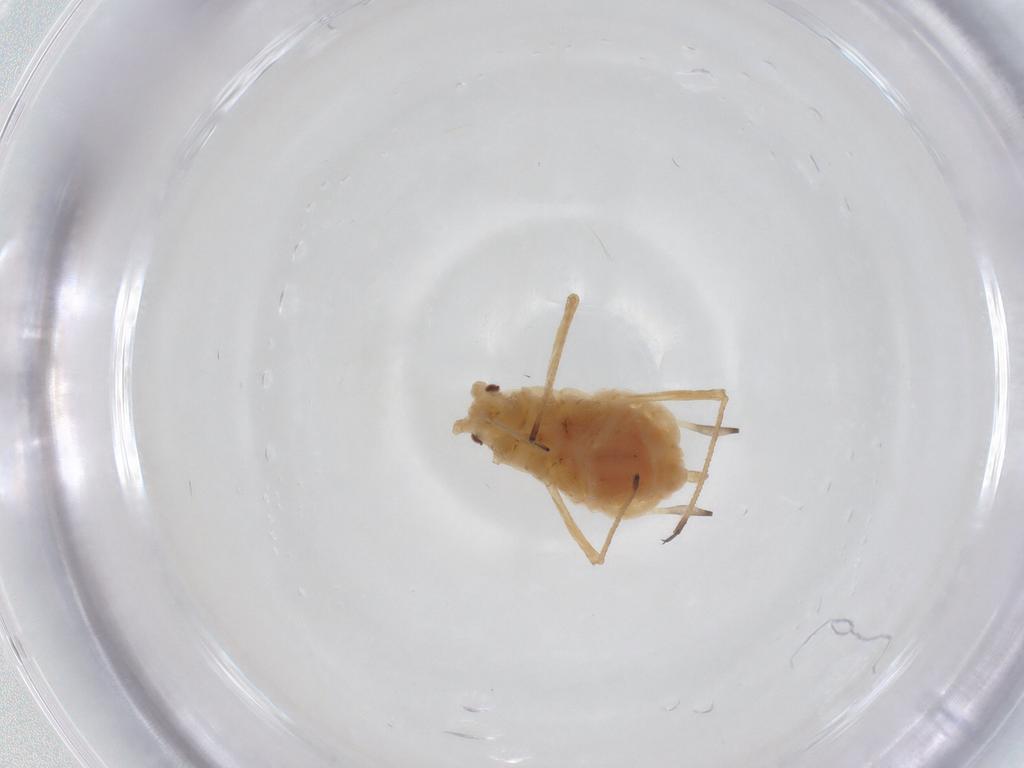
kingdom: Animalia
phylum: Arthropoda
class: Insecta
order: Hemiptera
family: Aphididae
